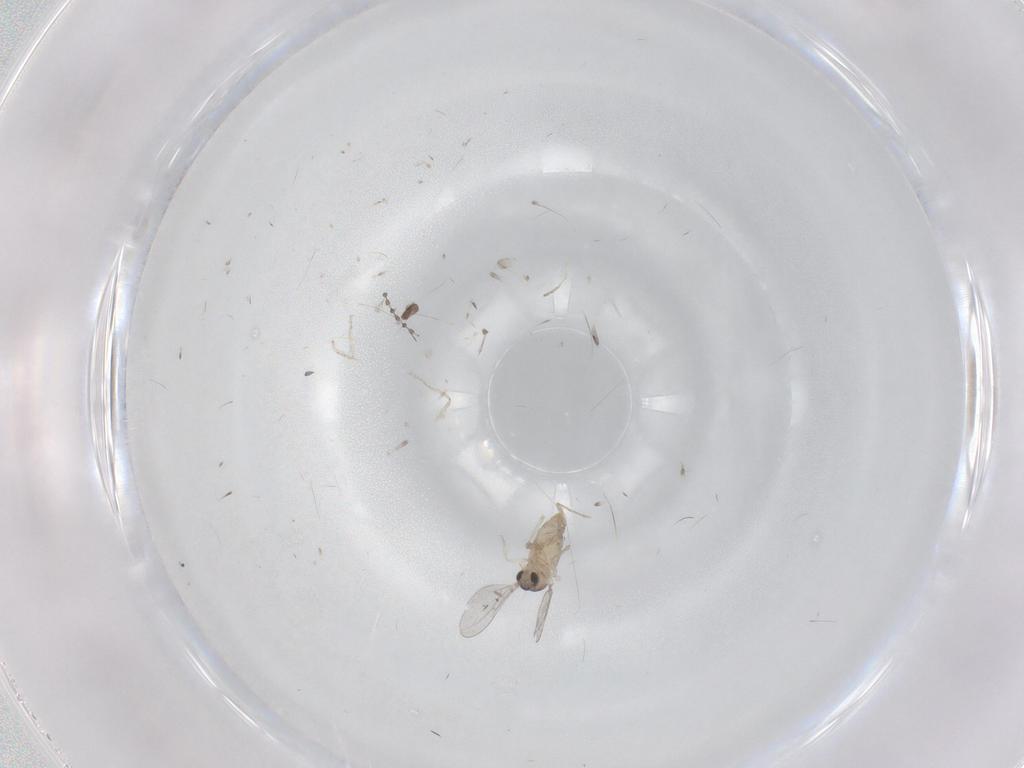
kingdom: Animalia
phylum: Arthropoda
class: Insecta
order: Diptera
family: Cecidomyiidae
